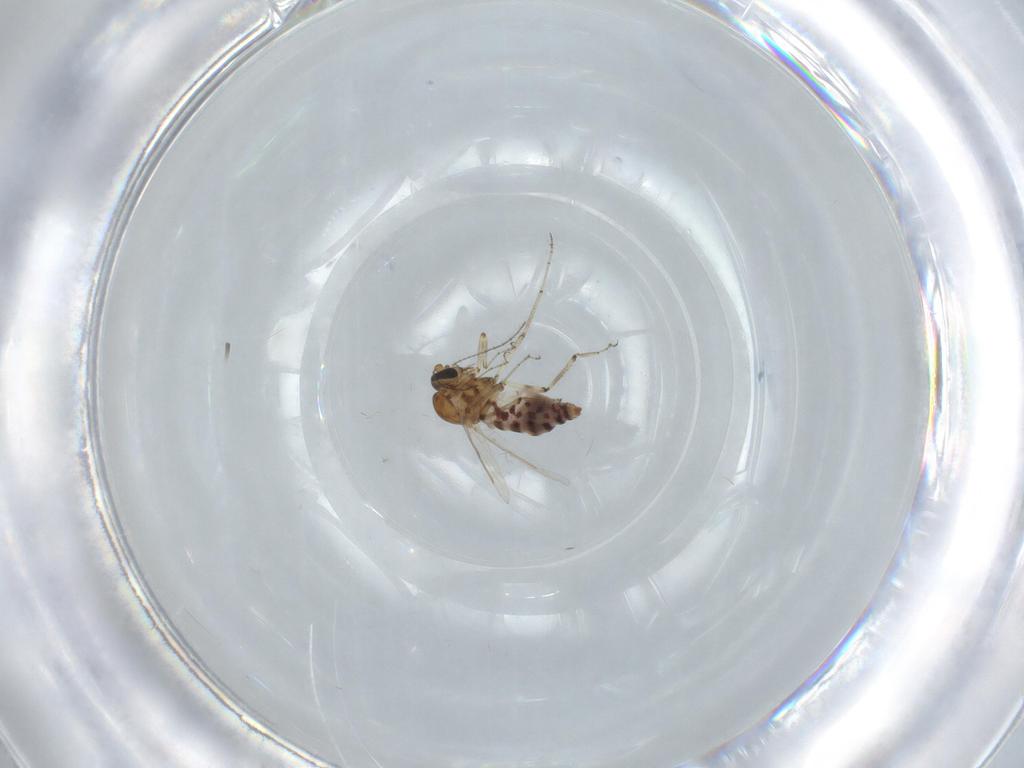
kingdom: Animalia
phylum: Arthropoda
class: Insecta
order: Diptera
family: Ceratopogonidae
